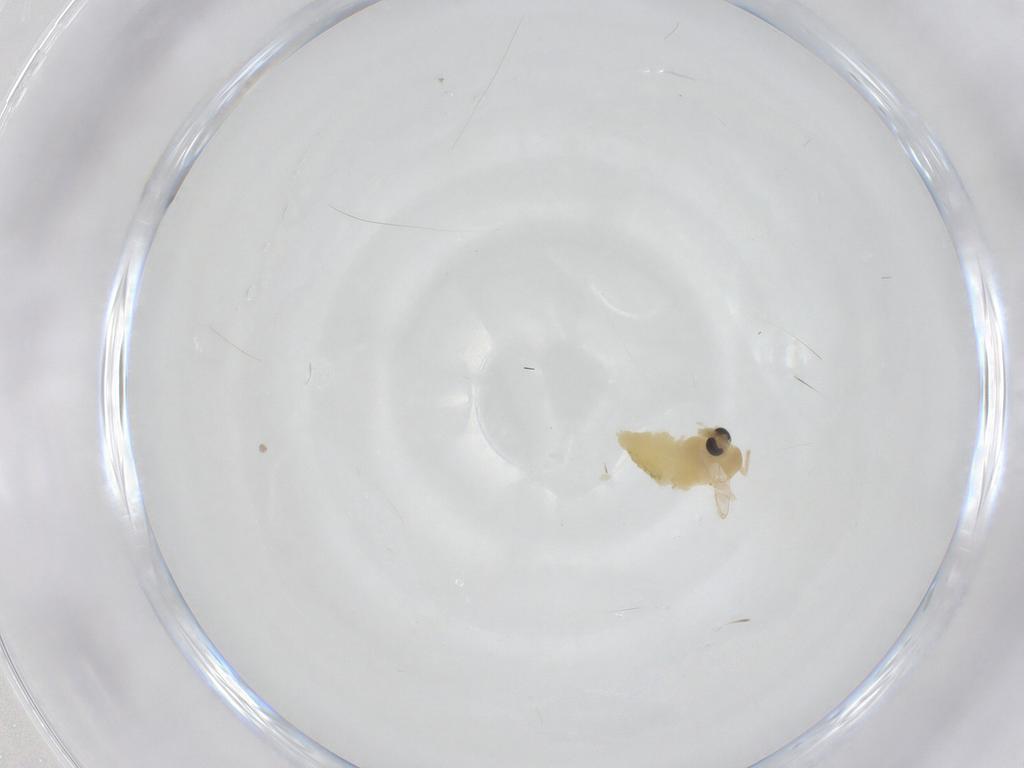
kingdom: Animalia
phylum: Arthropoda
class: Insecta
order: Diptera
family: Chironomidae
